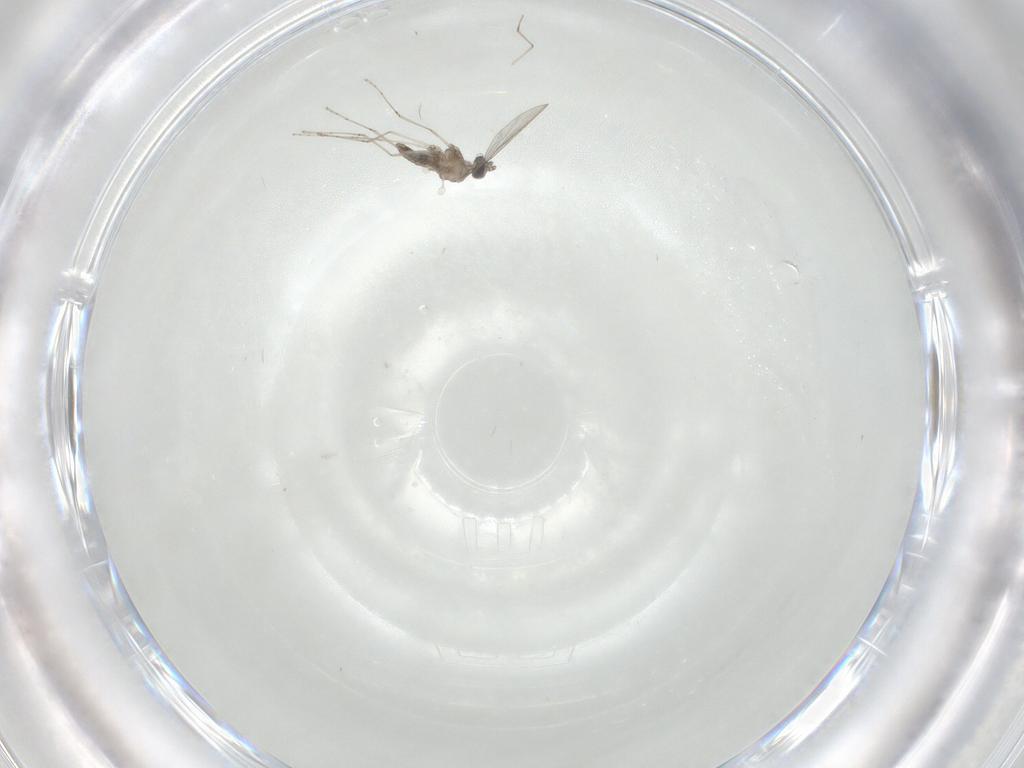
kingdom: Animalia
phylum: Arthropoda
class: Insecta
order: Diptera
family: Cecidomyiidae
